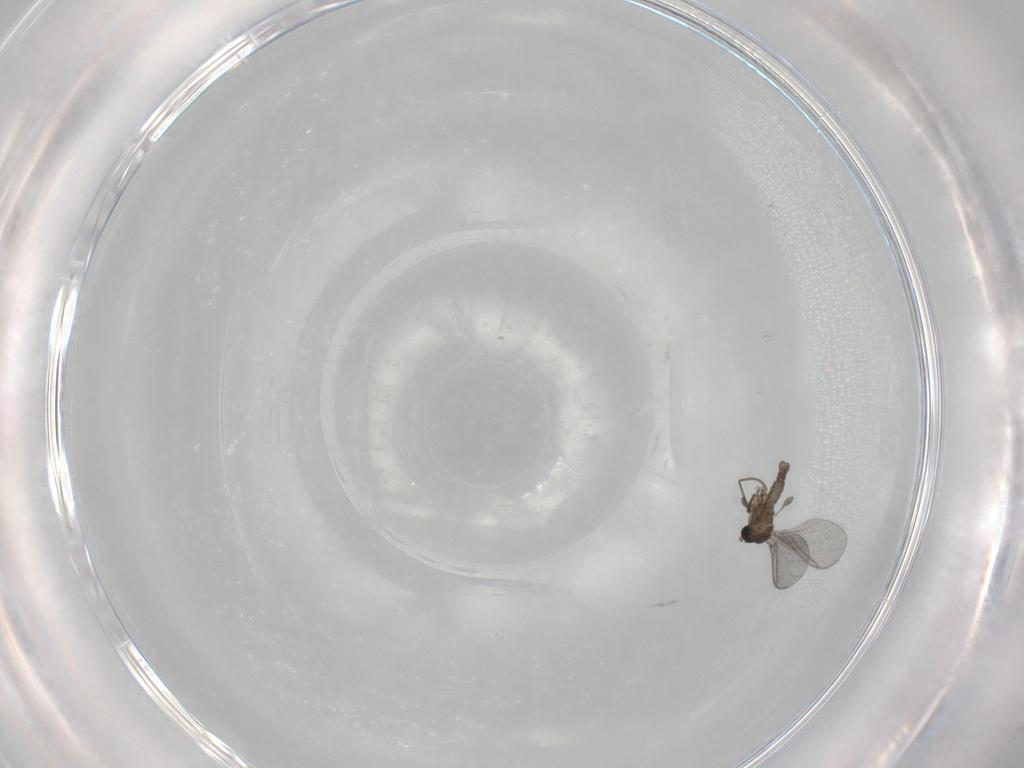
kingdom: Animalia
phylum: Arthropoda
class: Insecta
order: Diptera
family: Sciaridae
